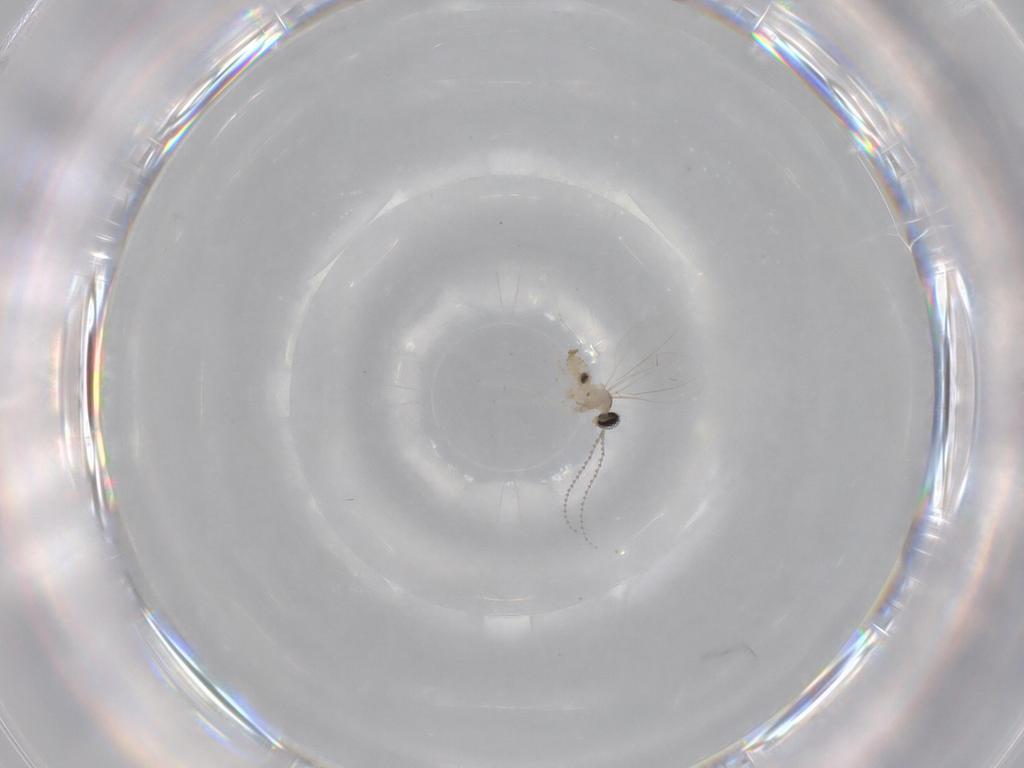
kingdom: Animalia
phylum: Arthropoda
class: Insecta
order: Diptera
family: Cecidomyiidae
